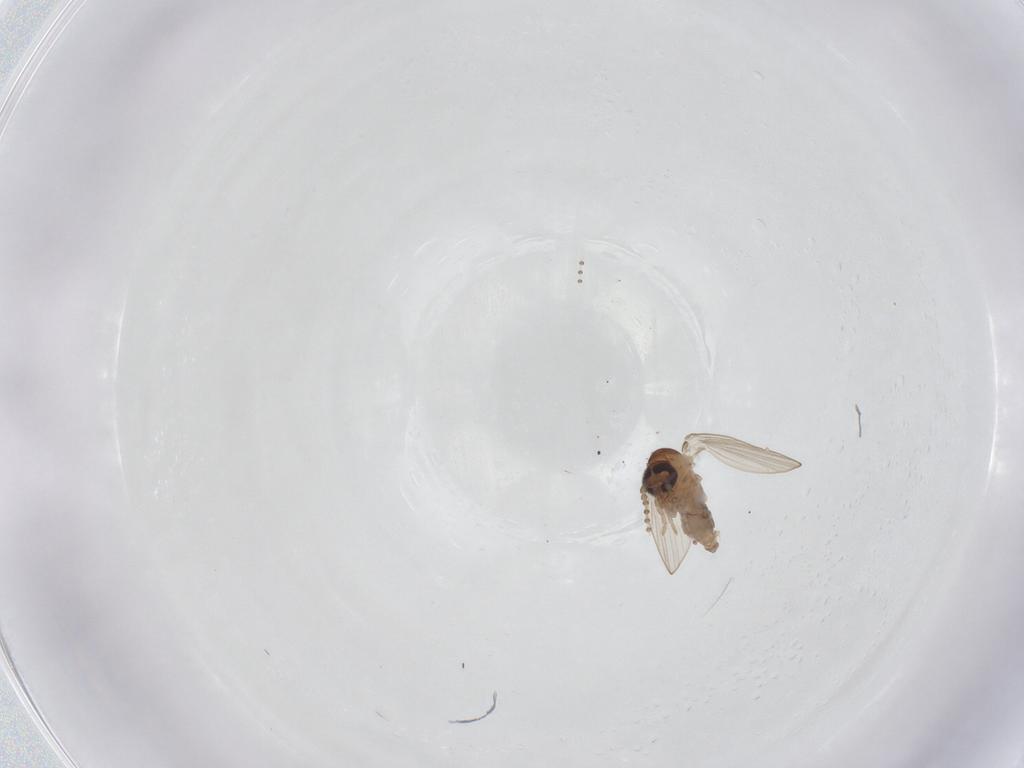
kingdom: Animalia
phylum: Arthropoda
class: Insecta
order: Diptera
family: Psychodidae
